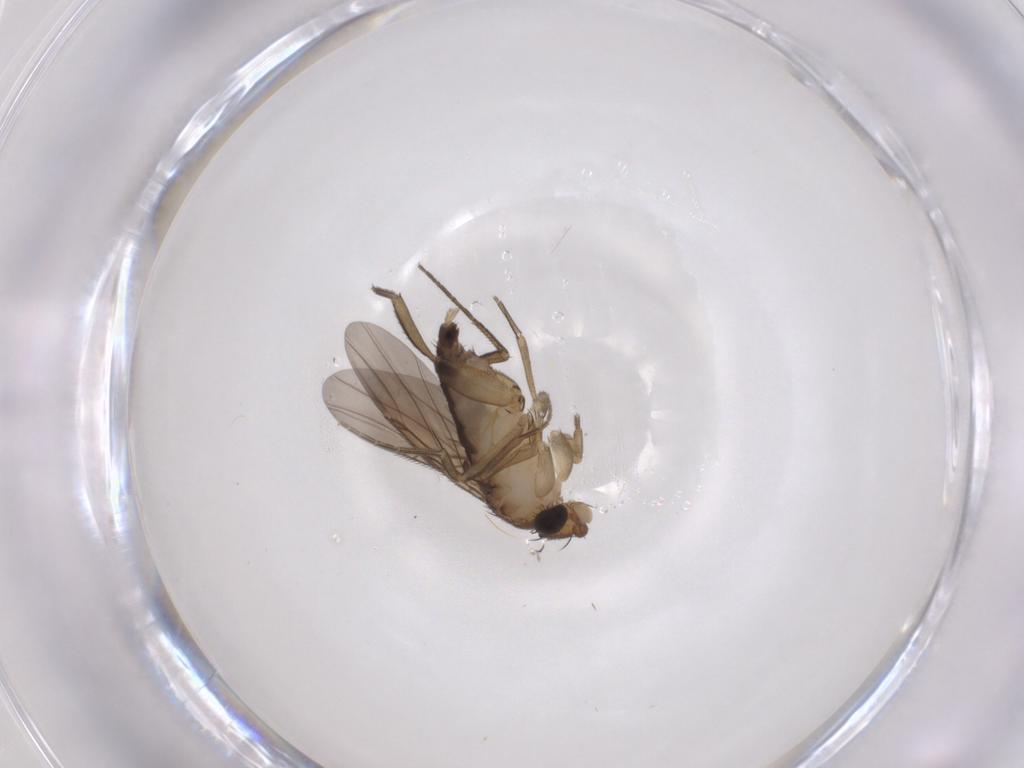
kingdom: Animalia
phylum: Arthropoda
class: Insecta
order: Diptera
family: Phoridae
